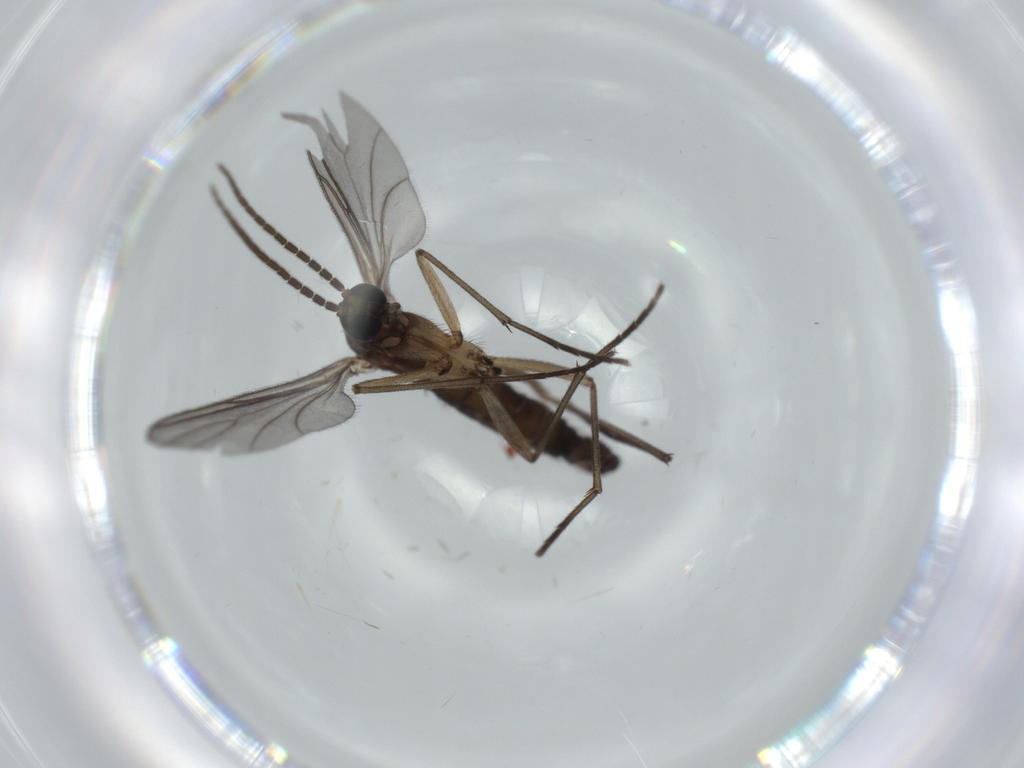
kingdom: Animalia
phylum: Arthropoda
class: Insecta
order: Diptera
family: Sciaridae
